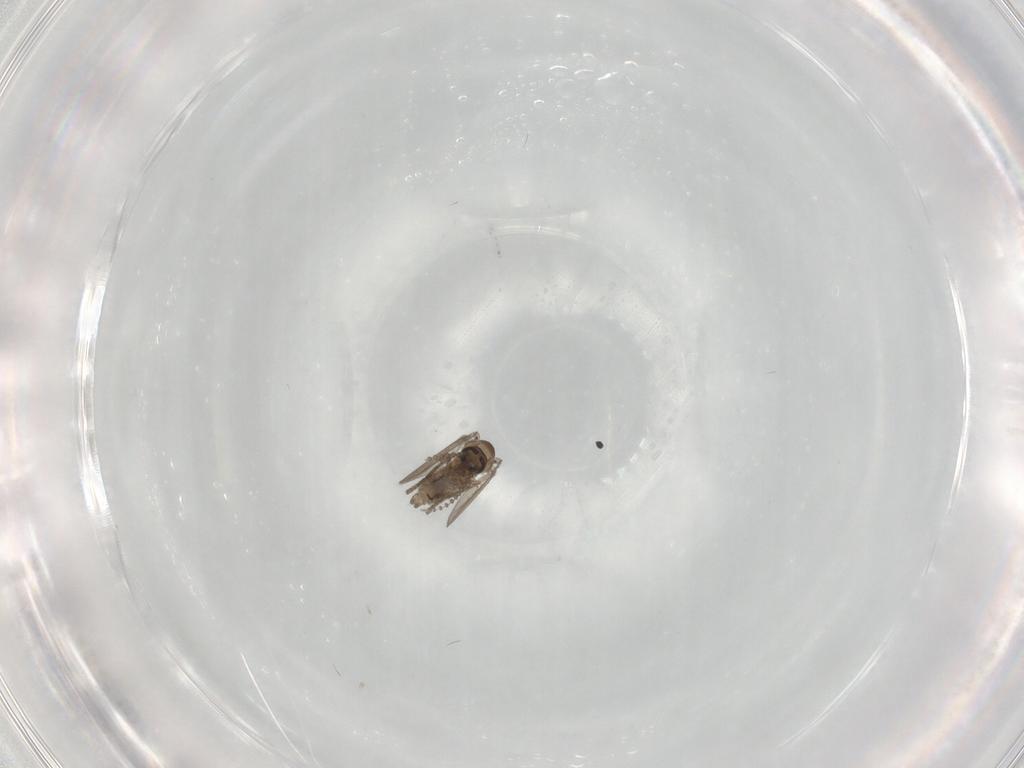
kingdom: Animalia
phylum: Arthropoda
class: Insecta
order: Diptera
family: Psychodidae
